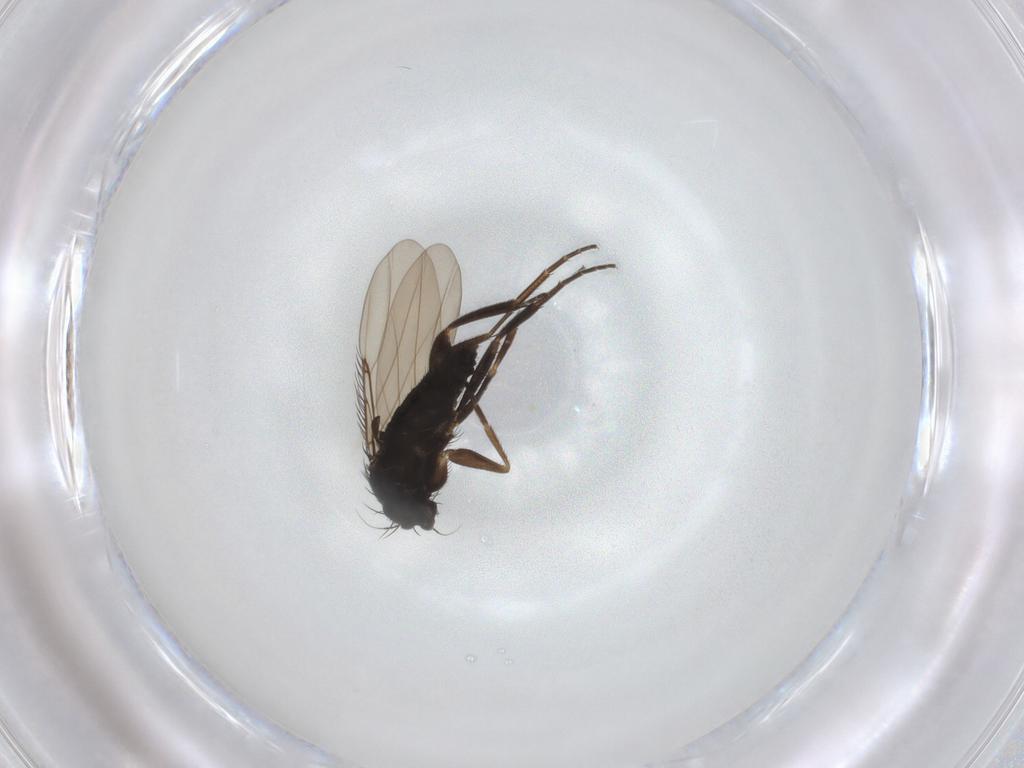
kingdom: Animalia
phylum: Arthropoda
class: Insecta
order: Diptera
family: Phoridae
